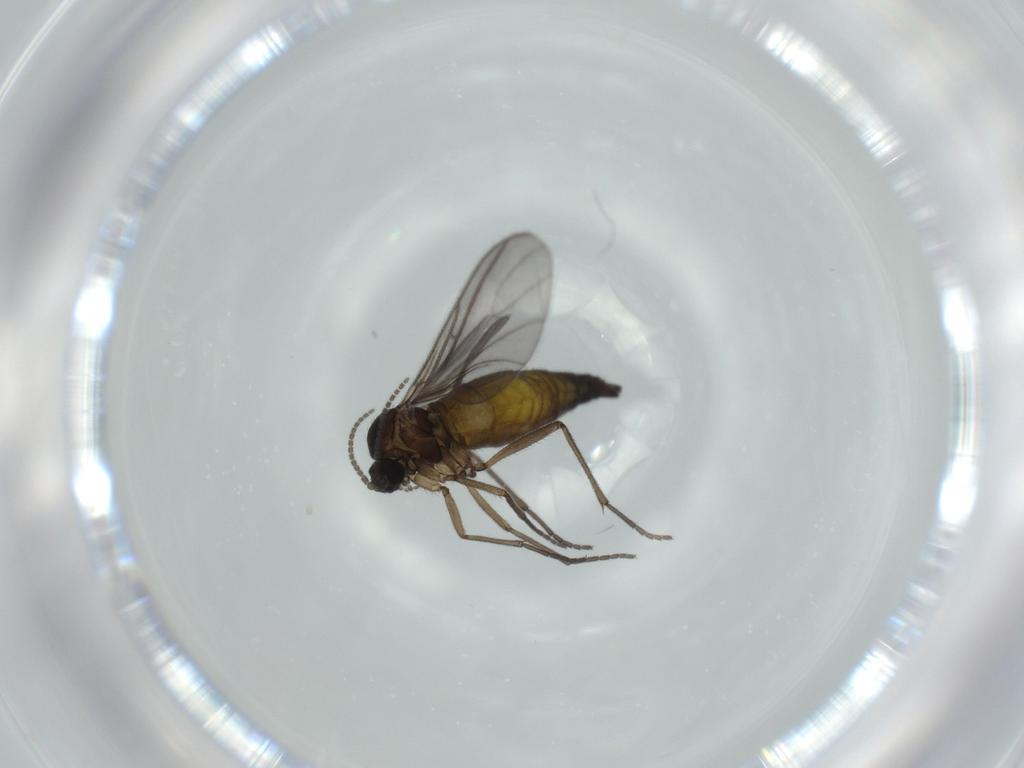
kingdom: Animalia
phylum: Arthropoda
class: Insecta
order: Diptera
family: Sciaridae
